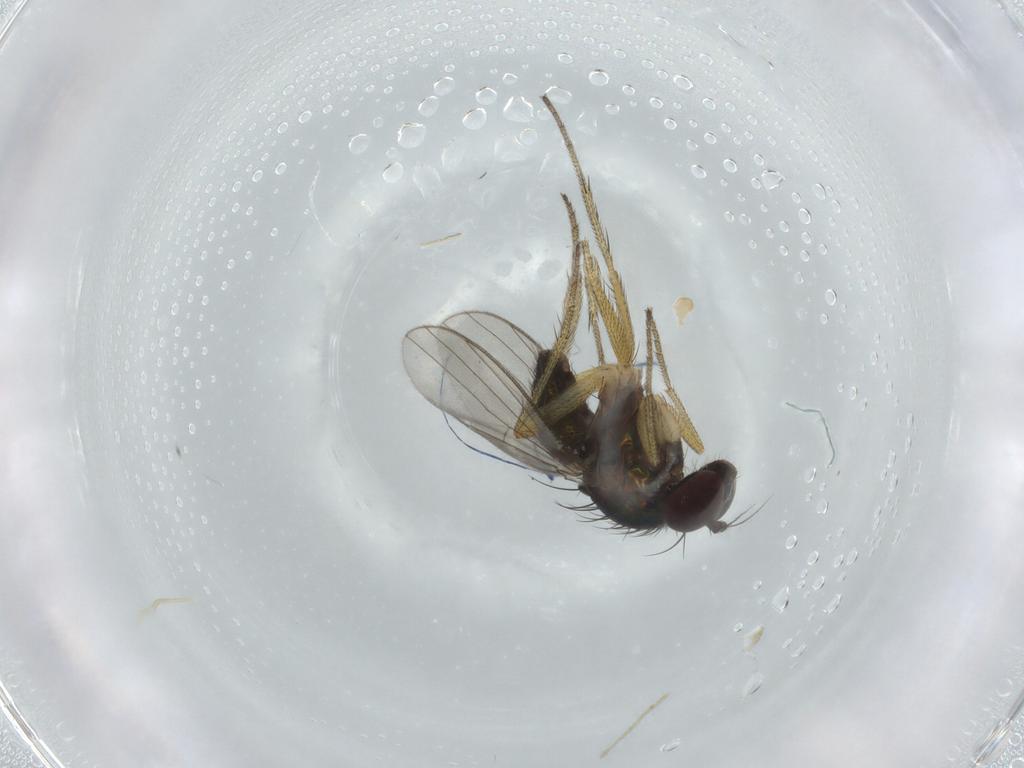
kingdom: Animalia
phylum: Arthropoda
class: Insecta
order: Diptera
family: Dolichopodidae
